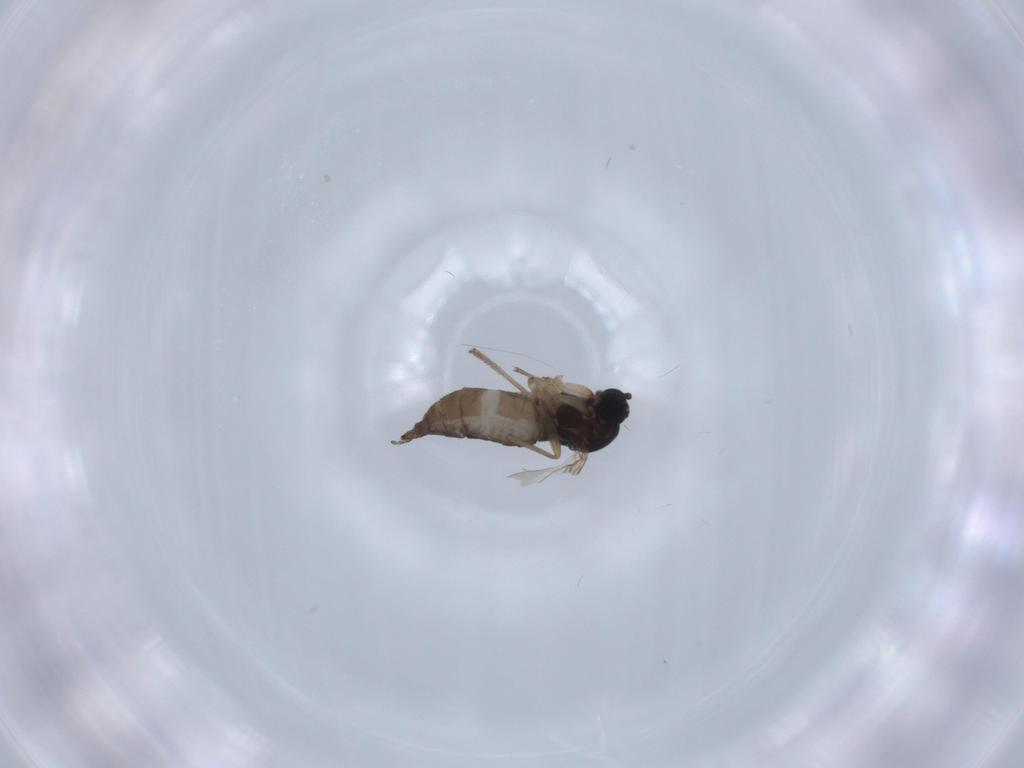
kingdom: Animalia
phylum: Arthropoda
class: Insecta
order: Diptera
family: Sciaridae
